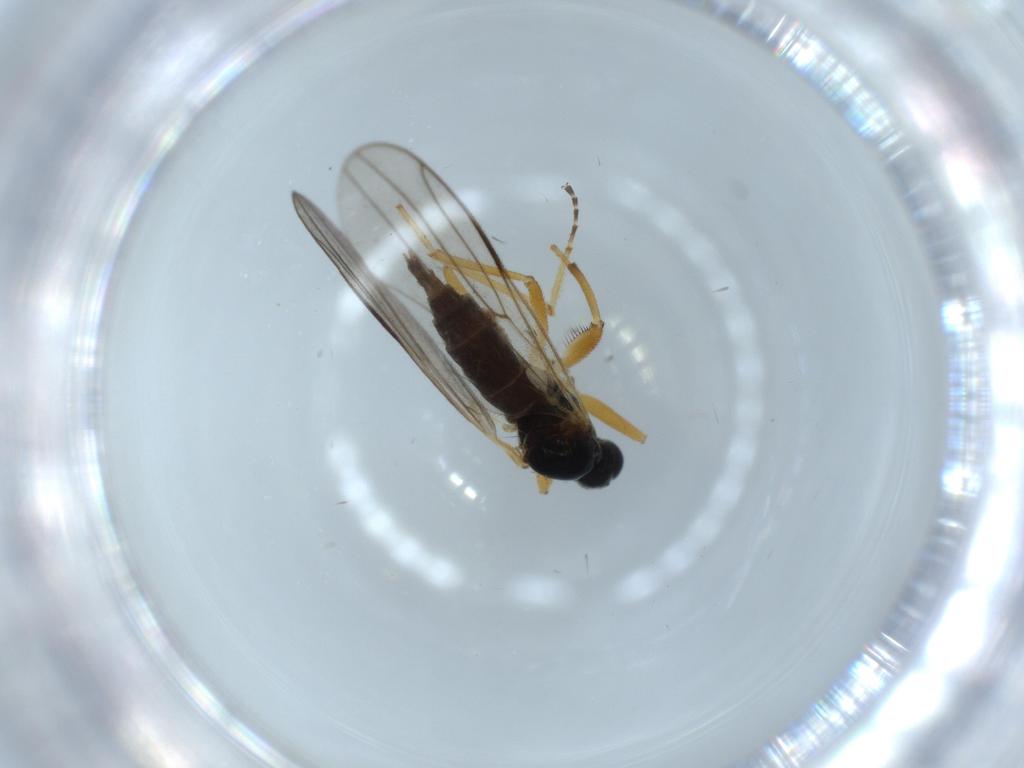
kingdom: Animalia
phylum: Arthropoda
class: Insecta
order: Diptera
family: Hybotidae
